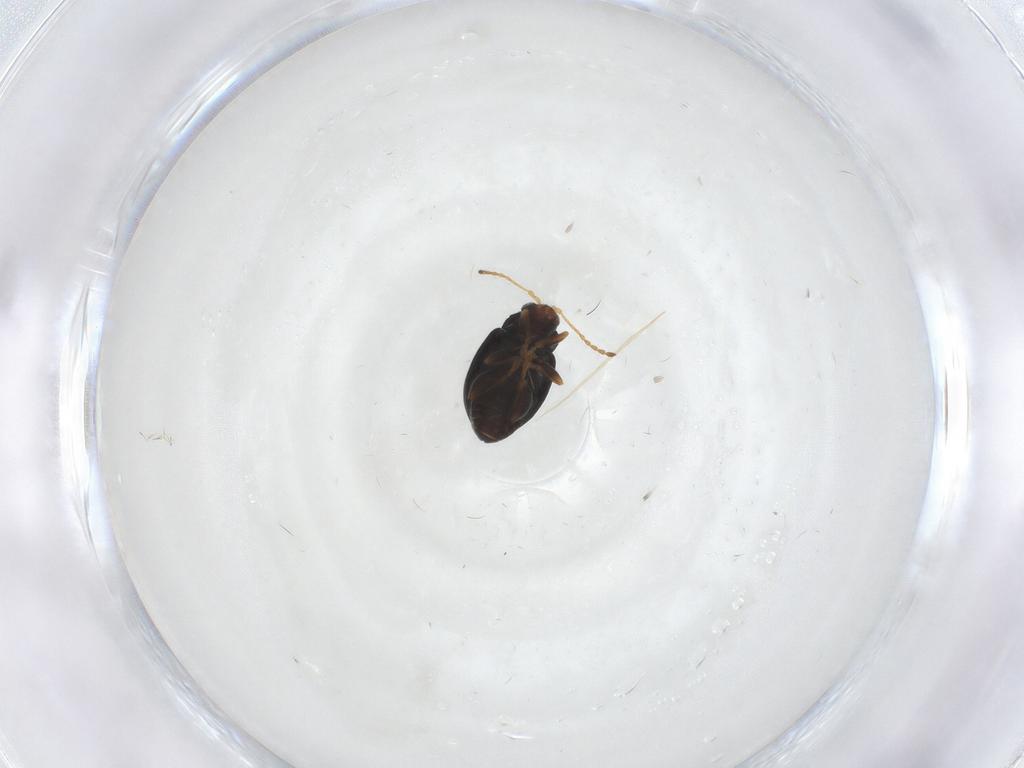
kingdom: Animalia
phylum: Arthropoda
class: Insecta
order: Coleoptera
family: Chrysomelidae
